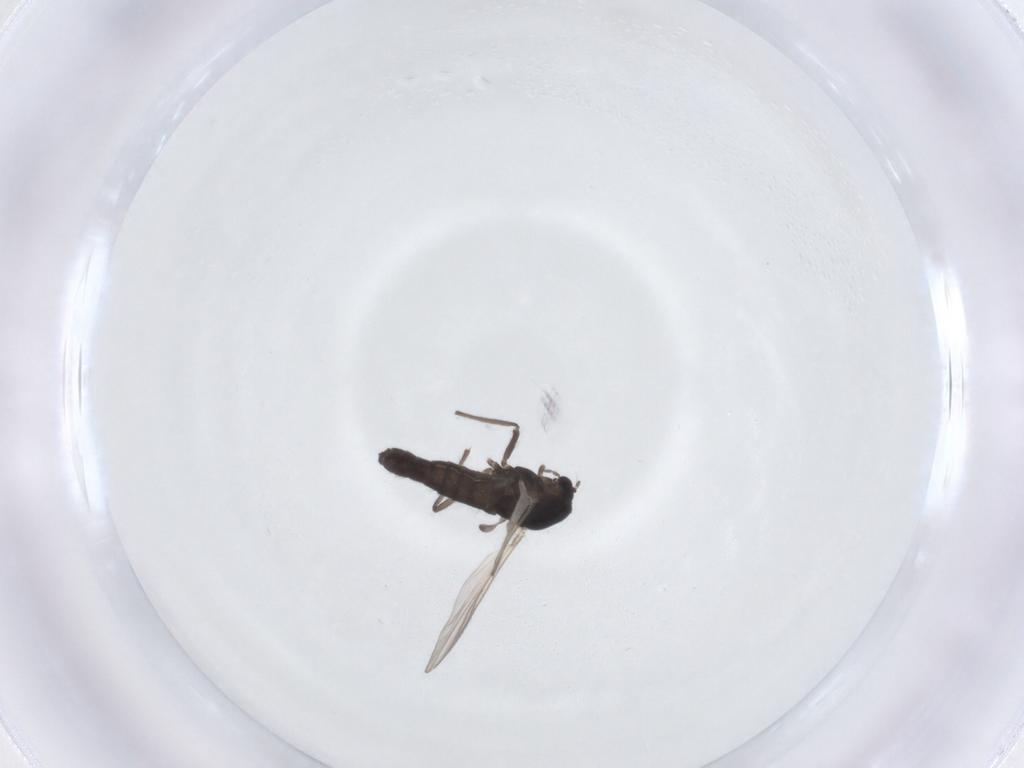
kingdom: Animalia
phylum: Arthropoda
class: Insecta
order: Diptera
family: Chironomidae
